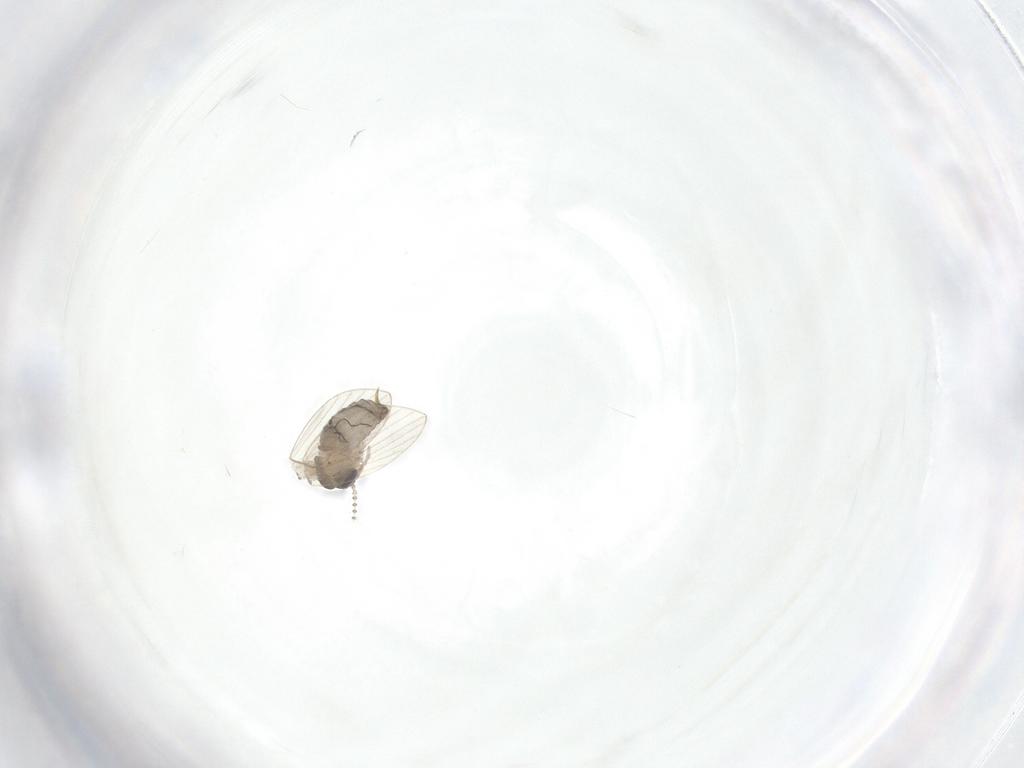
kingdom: Animalia
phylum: Arthropoda
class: Insecta
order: Diptera
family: Psychodidae
